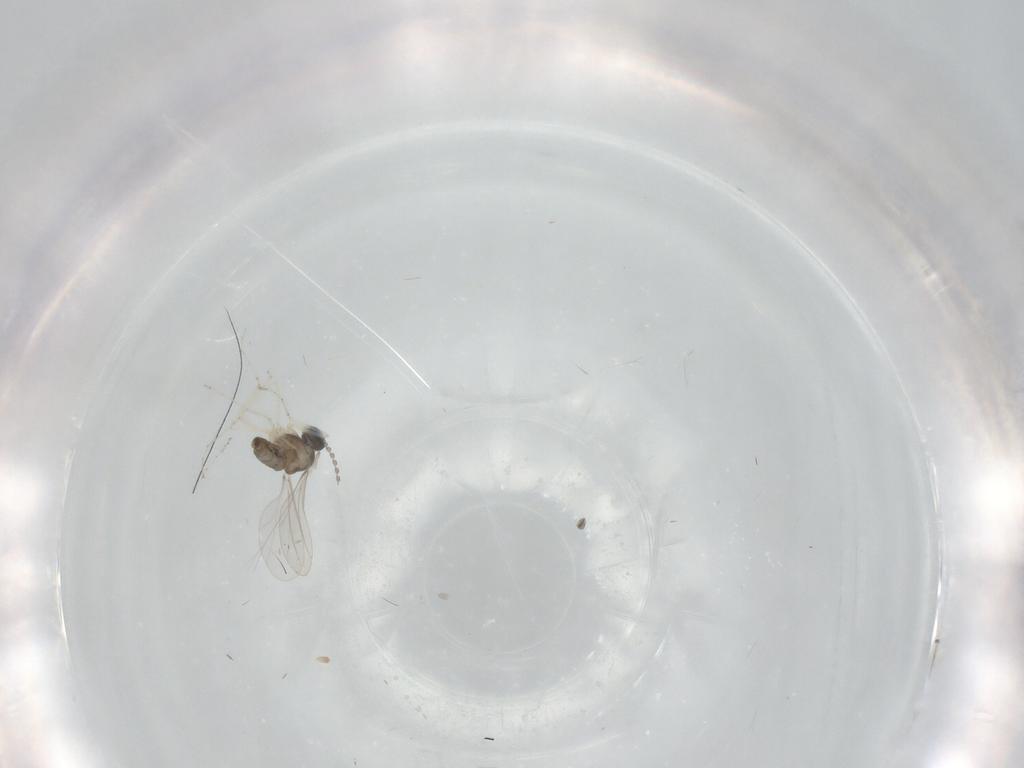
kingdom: Animalia
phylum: Arthropoda
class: Insecta
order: Diptera
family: Cecidomyiidae
